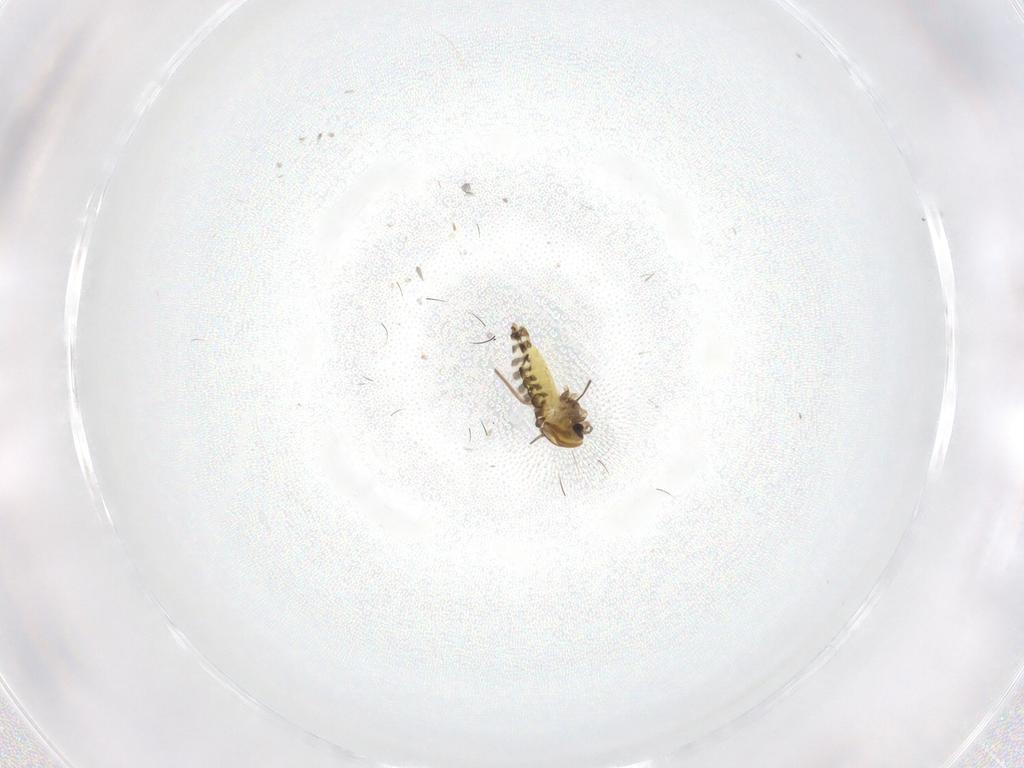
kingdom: Animalia
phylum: Arthropoda
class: Insecta
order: Diptera
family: Chironomidae
